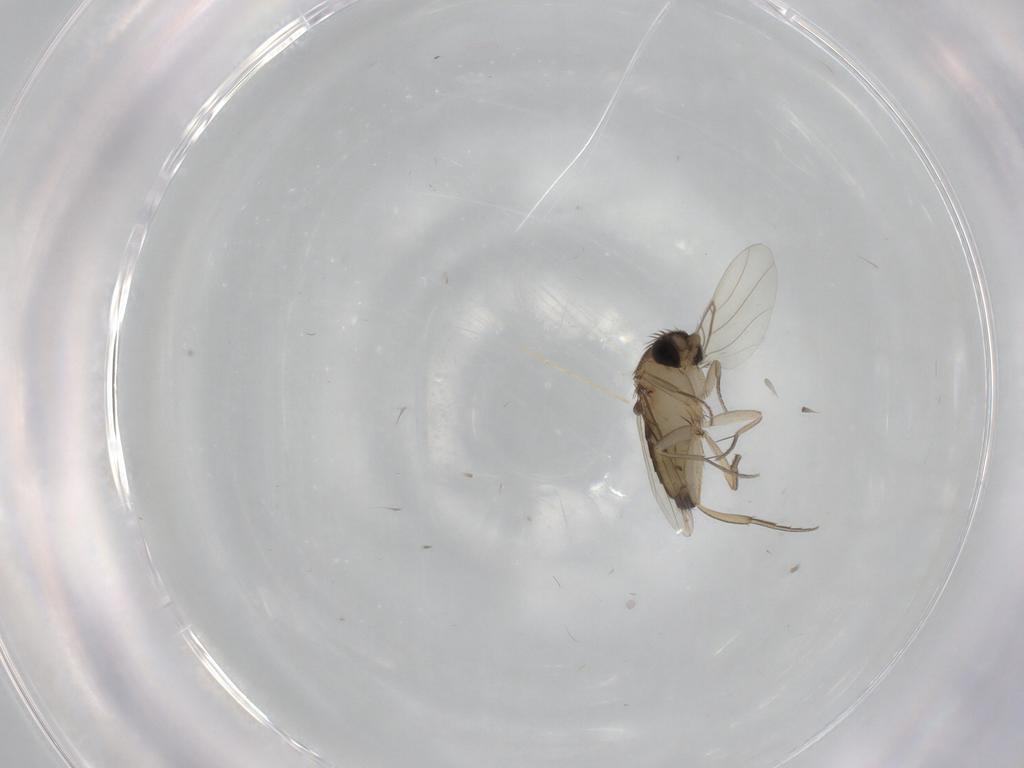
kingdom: Animalia
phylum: Arthropoda
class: Insecta
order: Diptera
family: Phoridae
